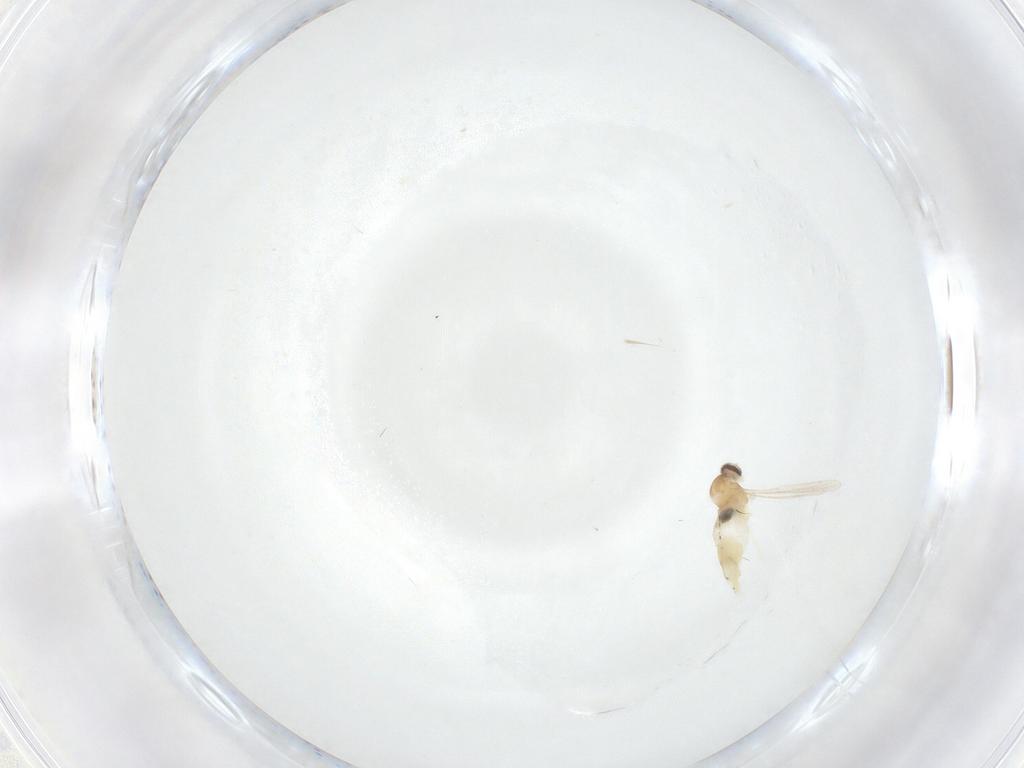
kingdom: Animalia
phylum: Arthropoda
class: Insecta
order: Diptera
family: Cecidomyiidae
